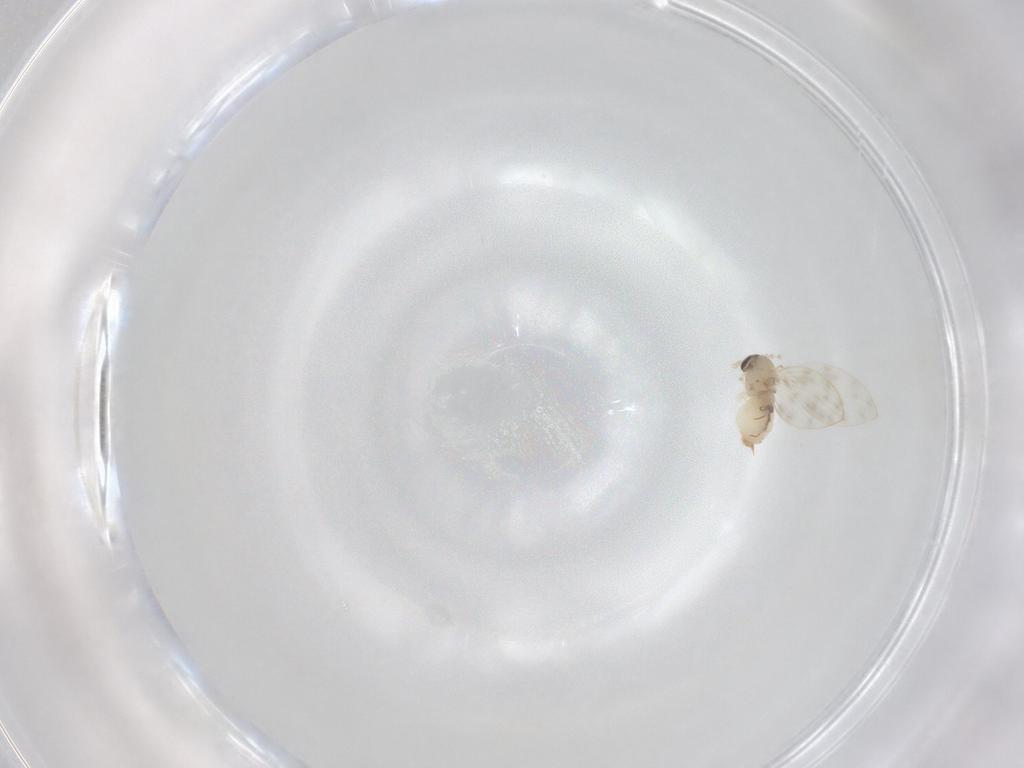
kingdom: Animalia
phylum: Arthropoda
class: Insecta
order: Diptera
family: Psychodidae
